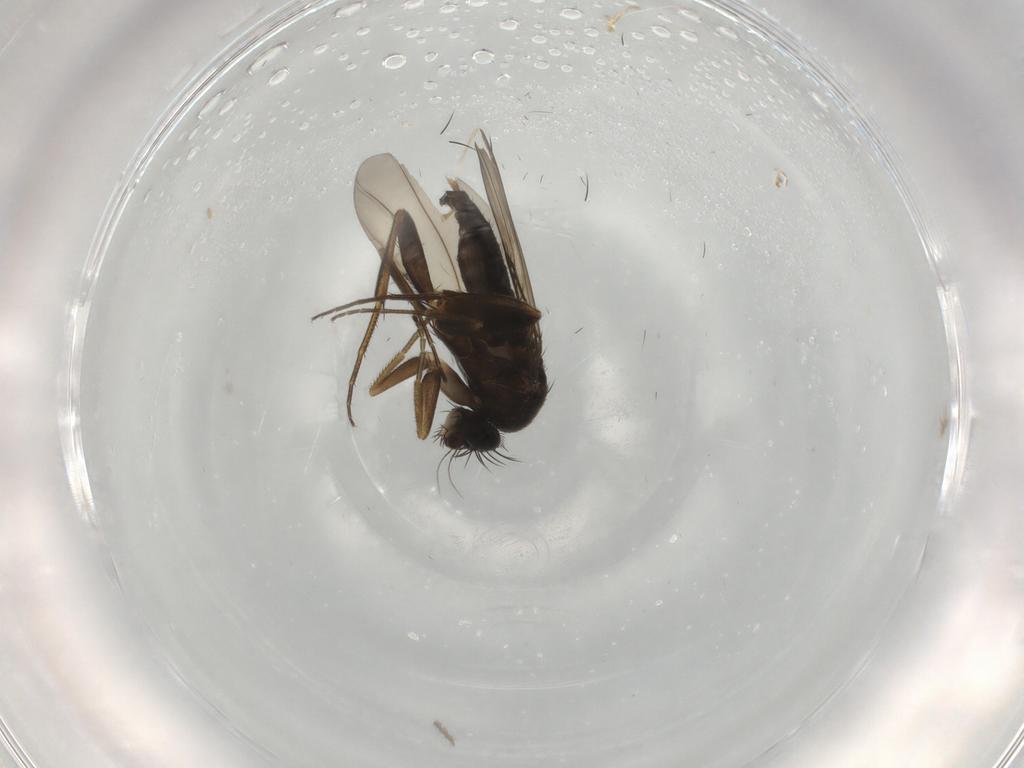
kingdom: Animalia
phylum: Arthropoda
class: Insecta
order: Diptera
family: Phoridae
